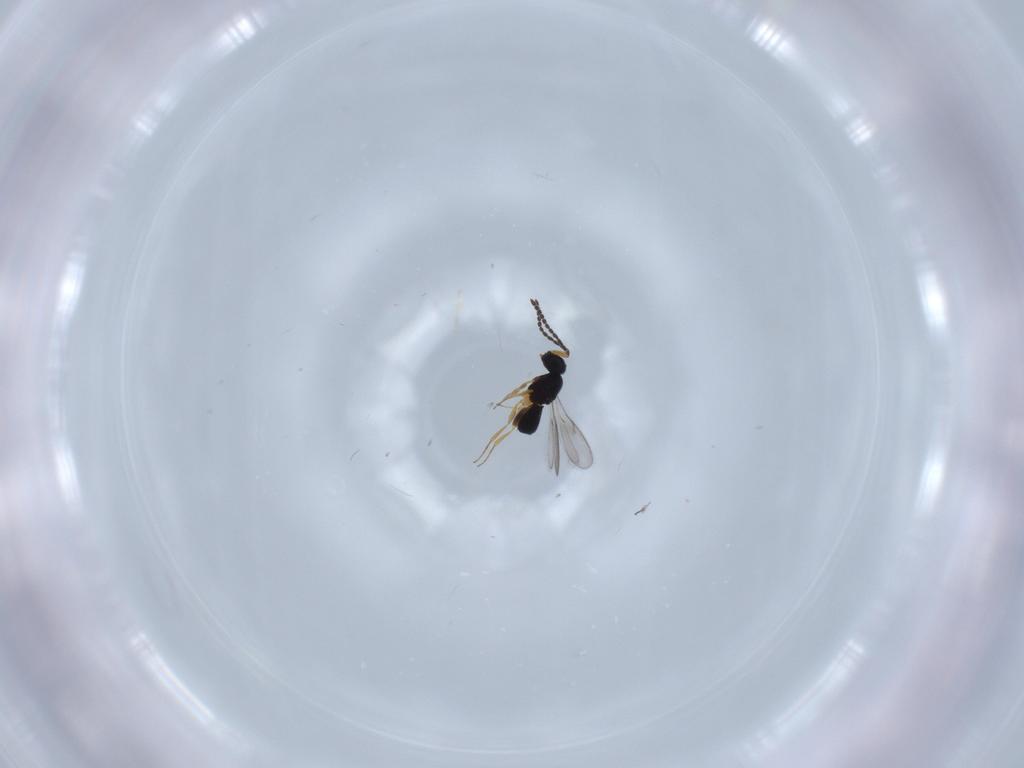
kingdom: Animalia
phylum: Arthropoda
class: Insecta
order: Hymenoptera
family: Scelionidae
